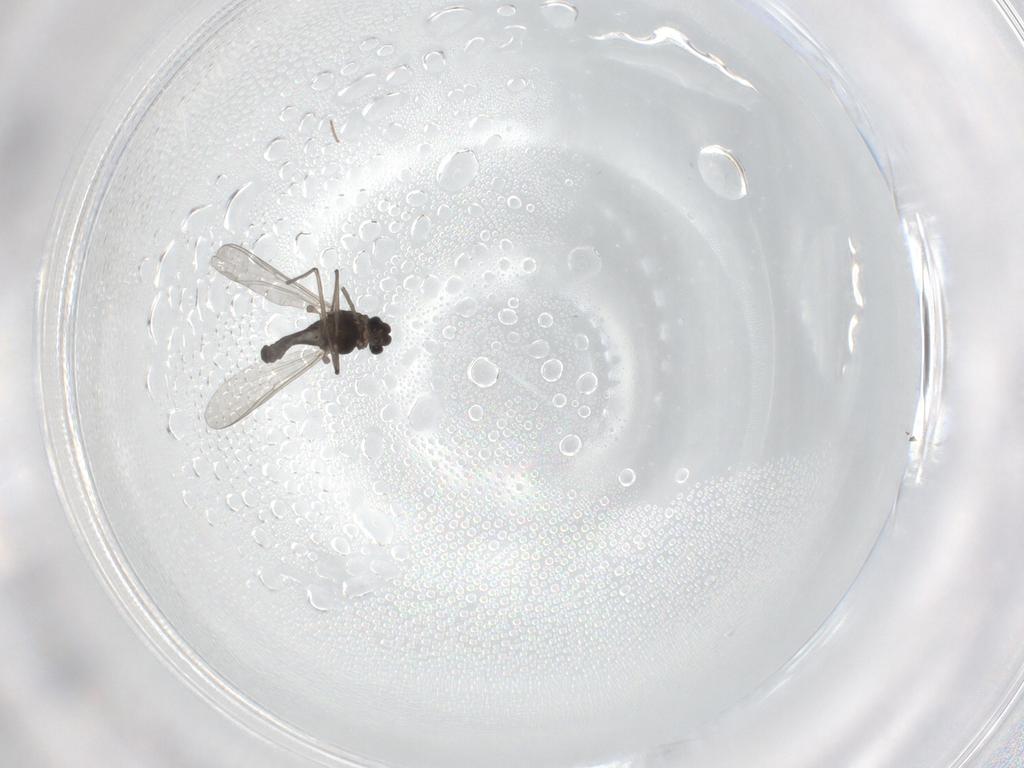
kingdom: Animalia
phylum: Arthropoda
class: Insecta
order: Diptera
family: Chironomidae
